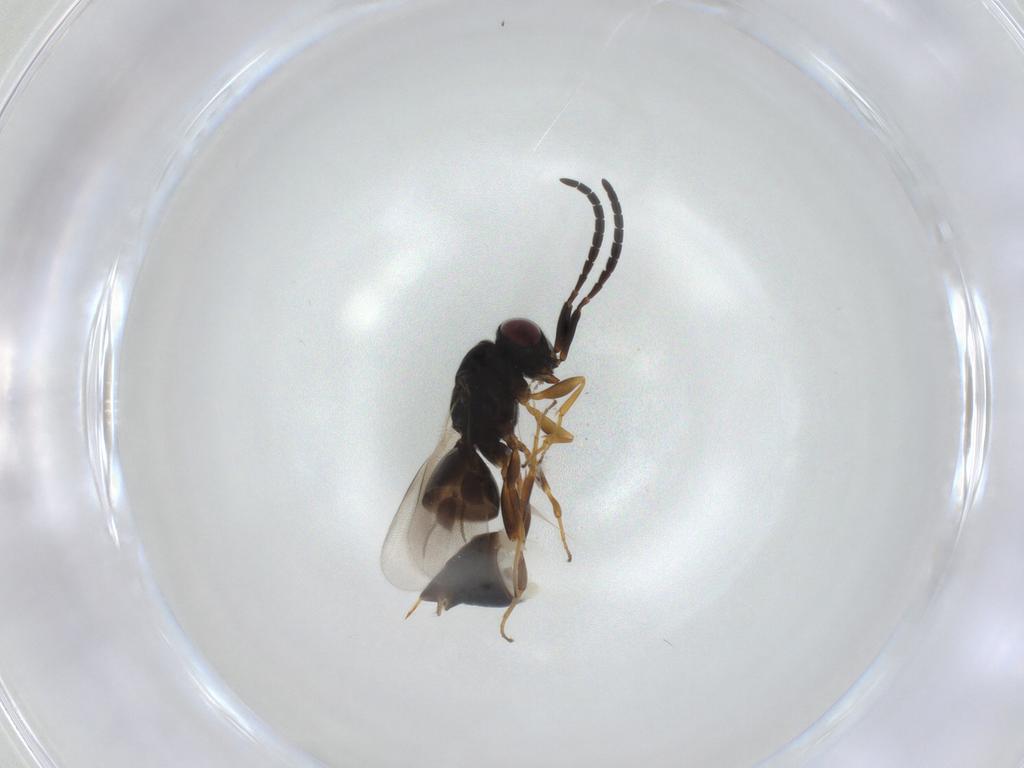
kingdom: Animalia
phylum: Arthropoda
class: Insecta
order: Hymenoptera
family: Megaspilidae
